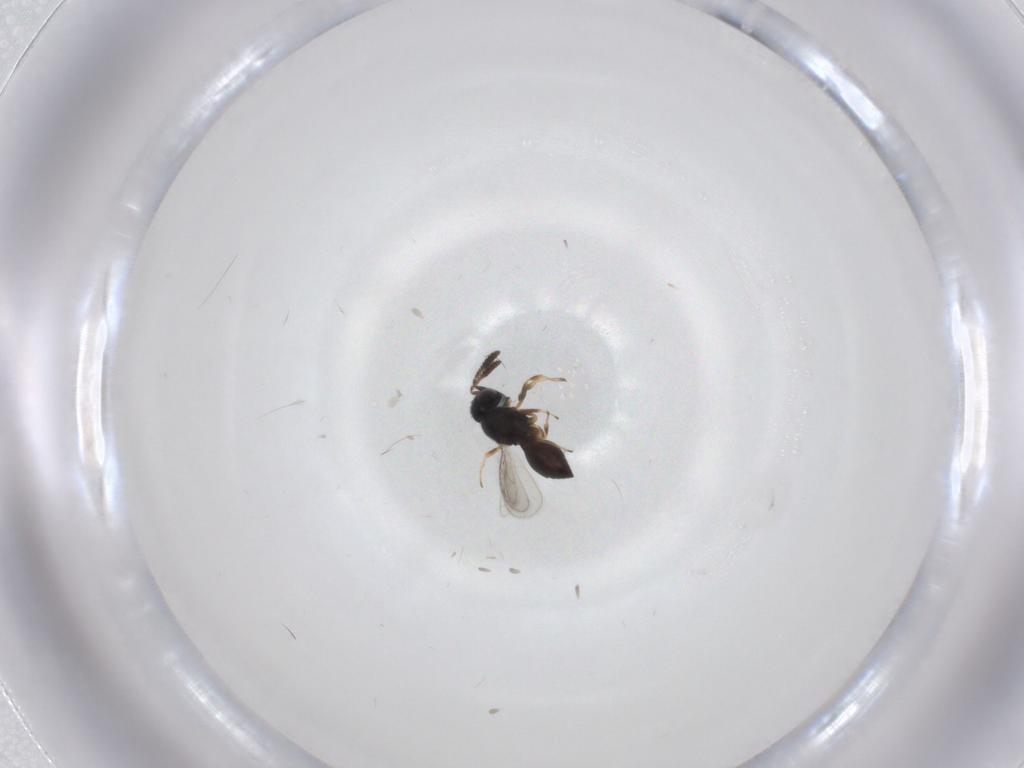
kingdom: Animalia
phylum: Arthropoda
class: Insecta
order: Hymenoptera
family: Scelionidae
